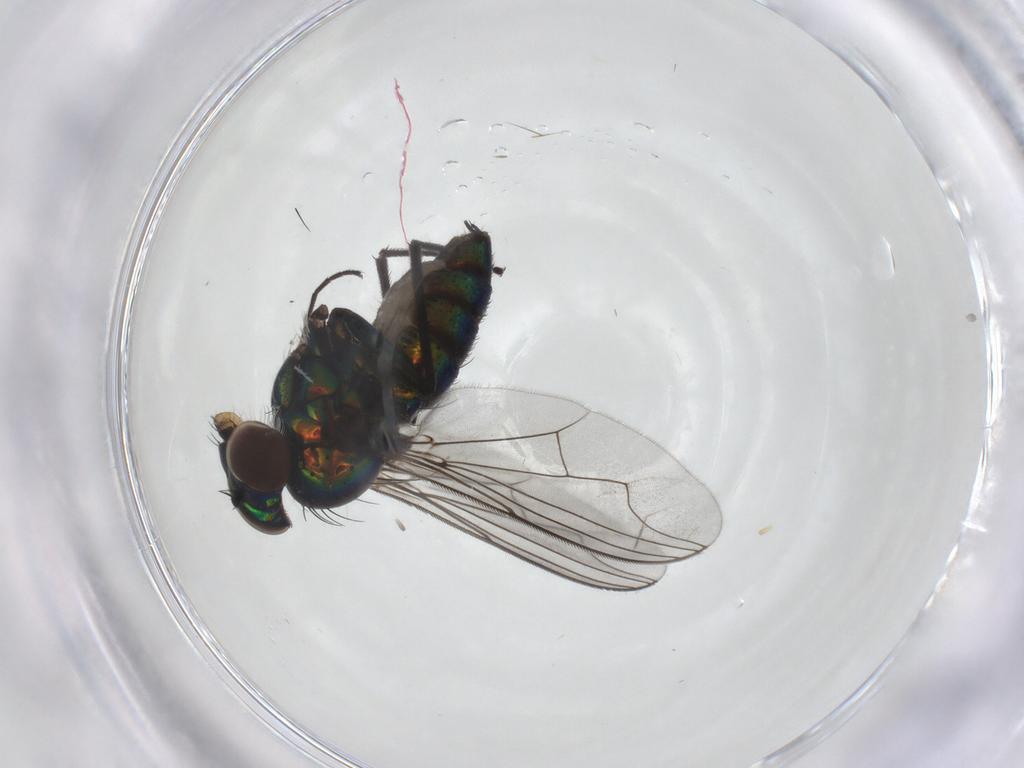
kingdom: Animalia
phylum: Arthropoda
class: Insecta
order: Diptera
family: Dolichopodidae
